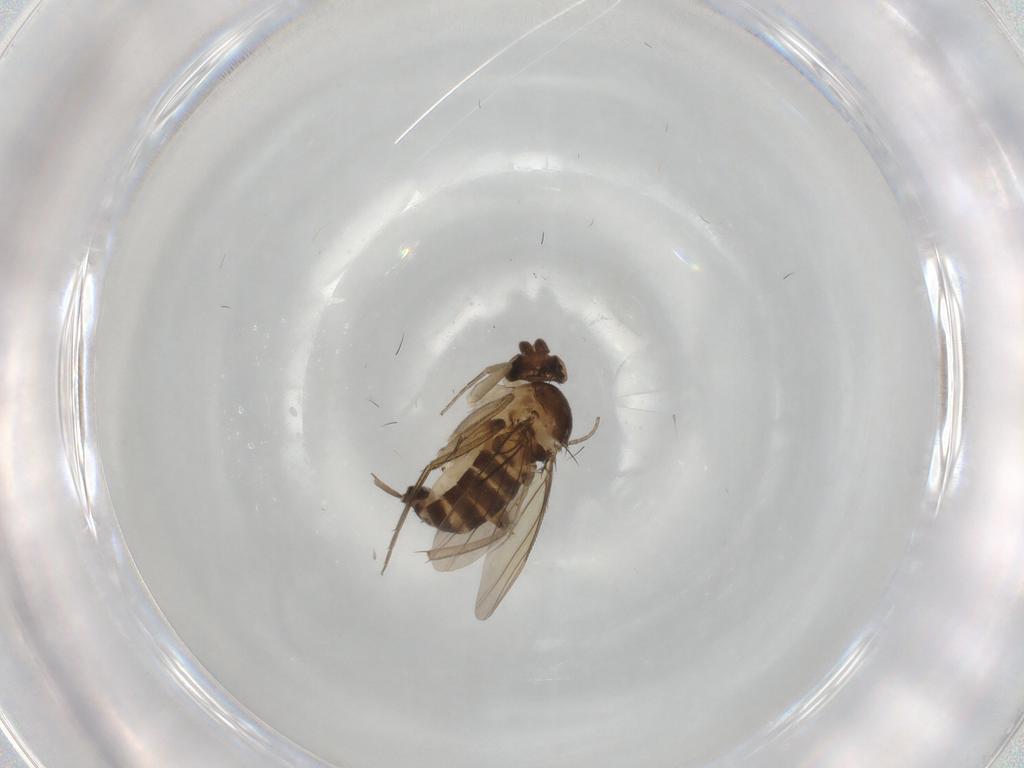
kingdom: Animalia
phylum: Arthropoda
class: Insecta
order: Diptera
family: Phoridae
